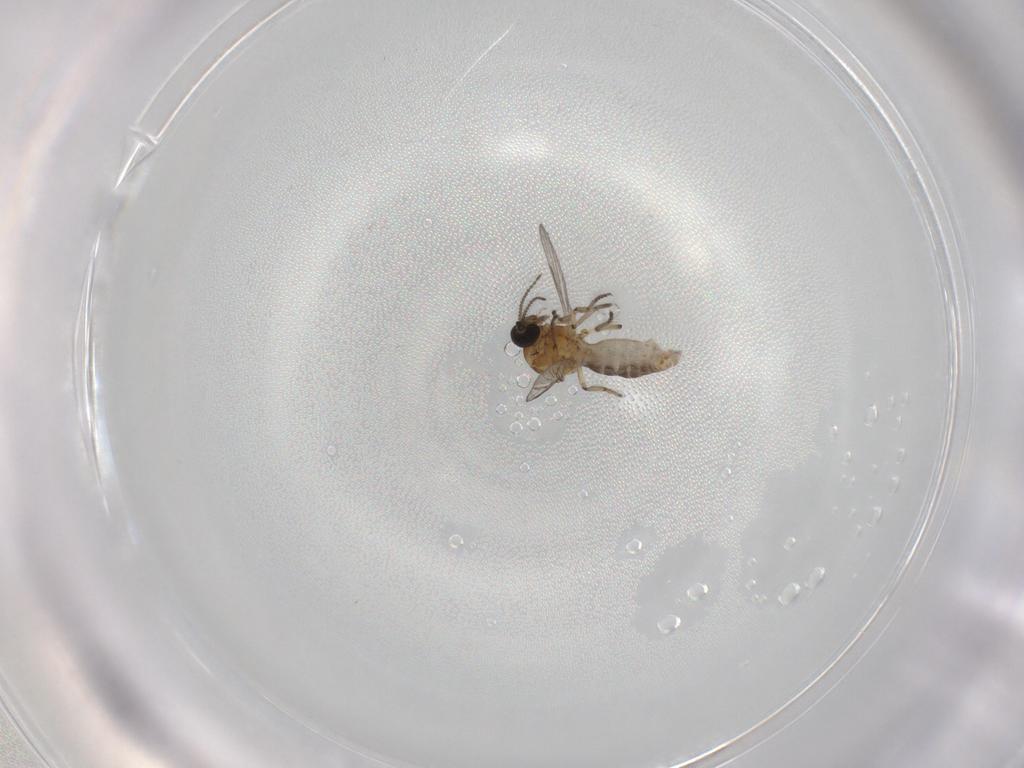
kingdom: Animalia
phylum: Arthropoda
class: Insecta
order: Diptera
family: Ceratopogonidae
